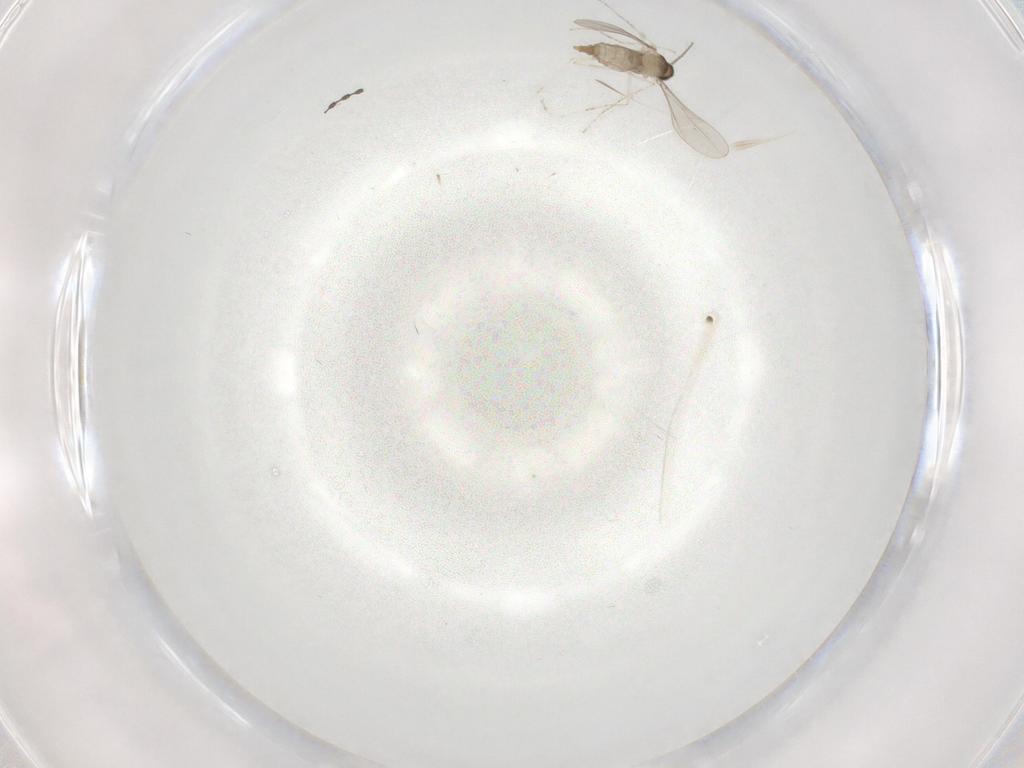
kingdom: Animalia
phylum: Arthropoda
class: Insecta
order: Diptera
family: Cecidomyiidae
